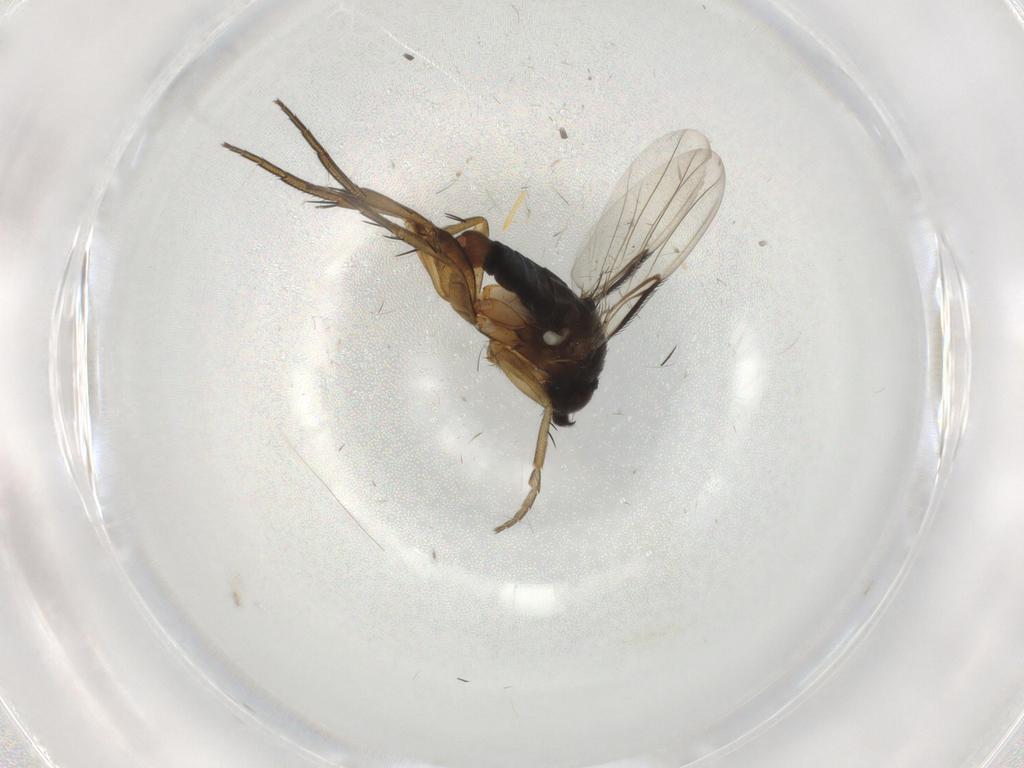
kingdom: Animalia
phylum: Arthropoda
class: Insecta
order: Diptera
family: Phoridae
